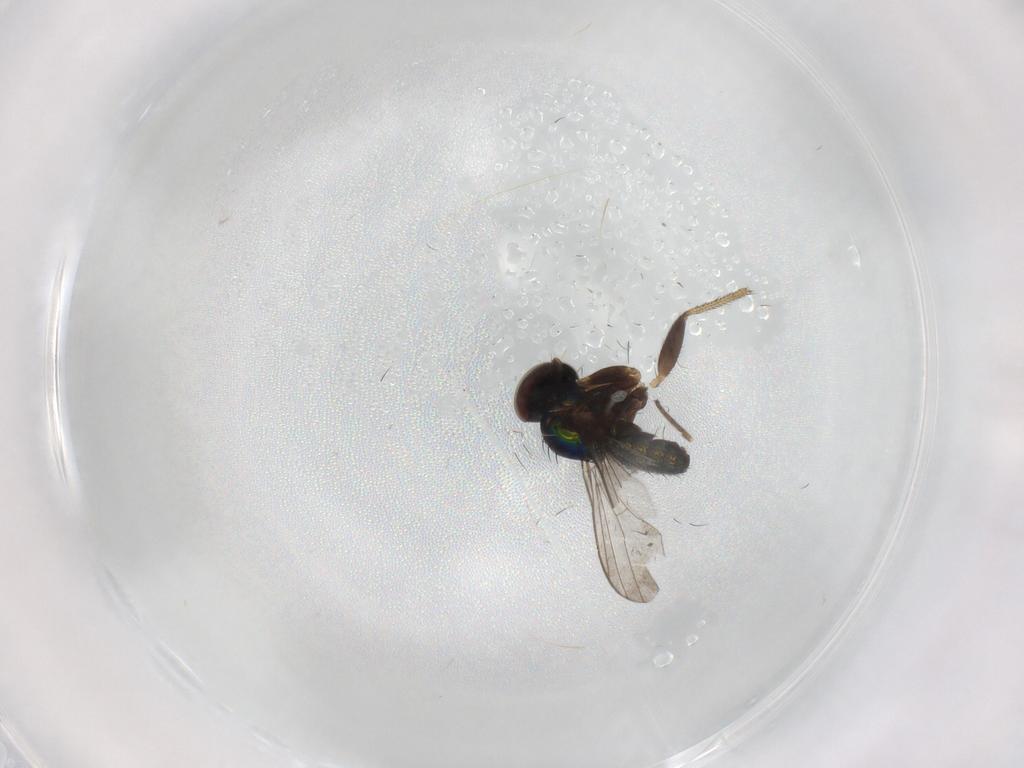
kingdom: Animalia
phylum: Arthropoda
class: Insecta
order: Diptera
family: Dolichopodidae
